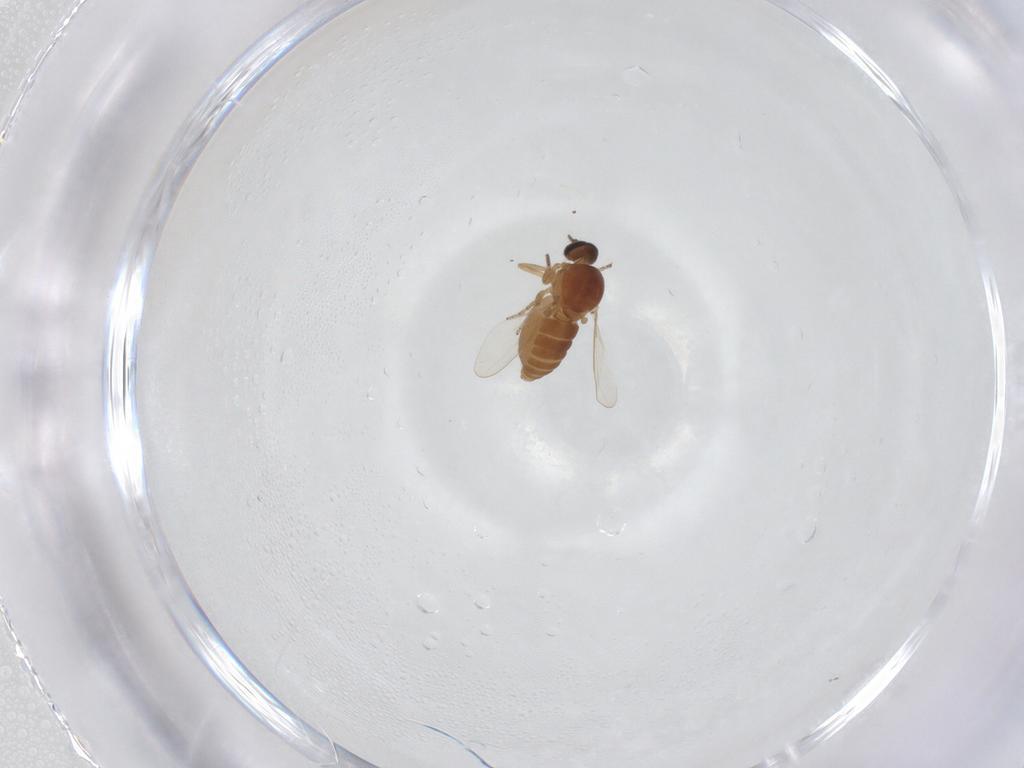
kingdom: Animalia
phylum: Arthropoda
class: Insecta
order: Diptera
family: Ceratopogonidae
